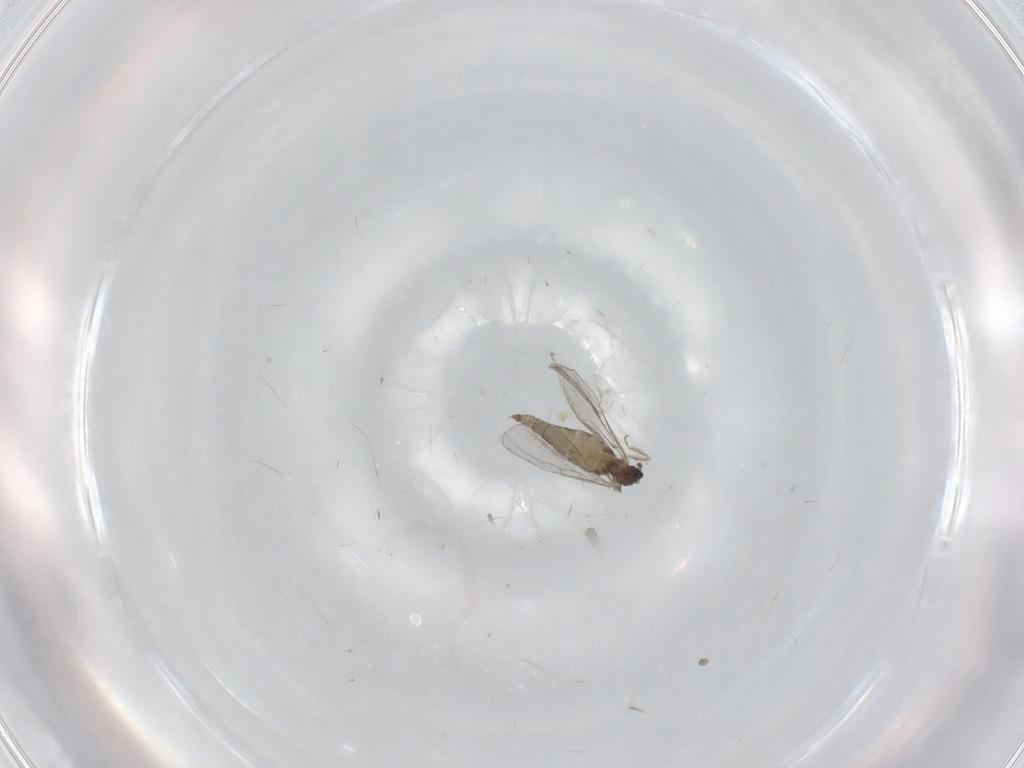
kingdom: Animalia
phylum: Arthropoda
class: Insecta
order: Diptera
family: Cecidomyiidae
